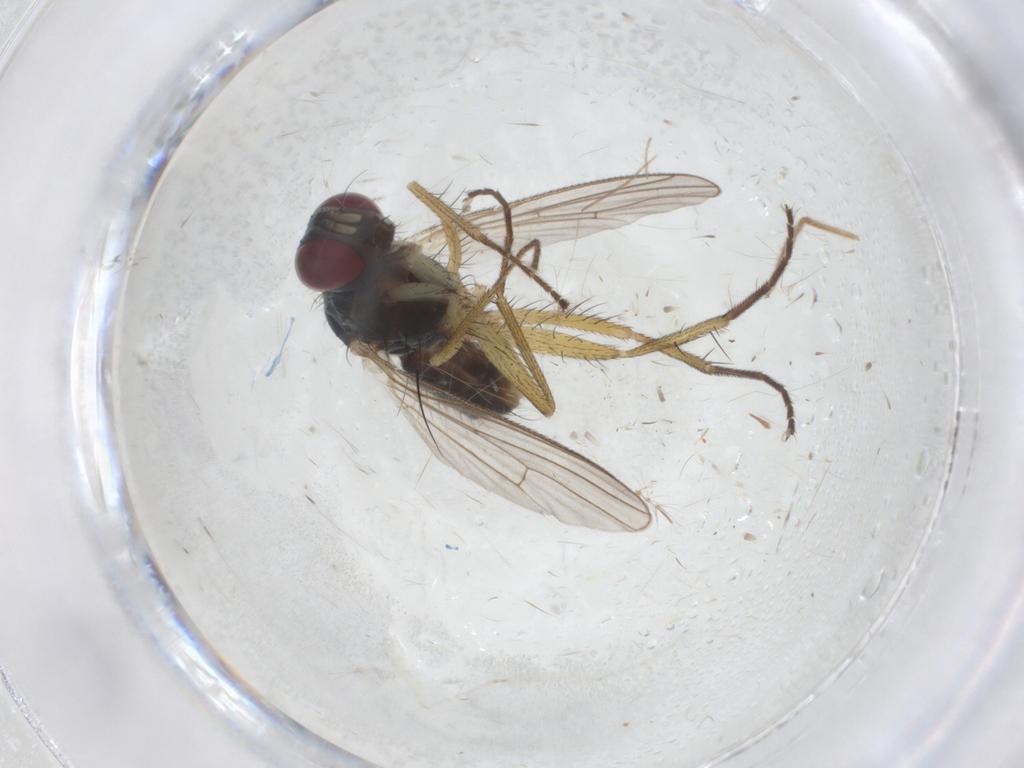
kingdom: Animalia
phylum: Arthropoda
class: Insecta
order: Diptera
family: Muscidae
